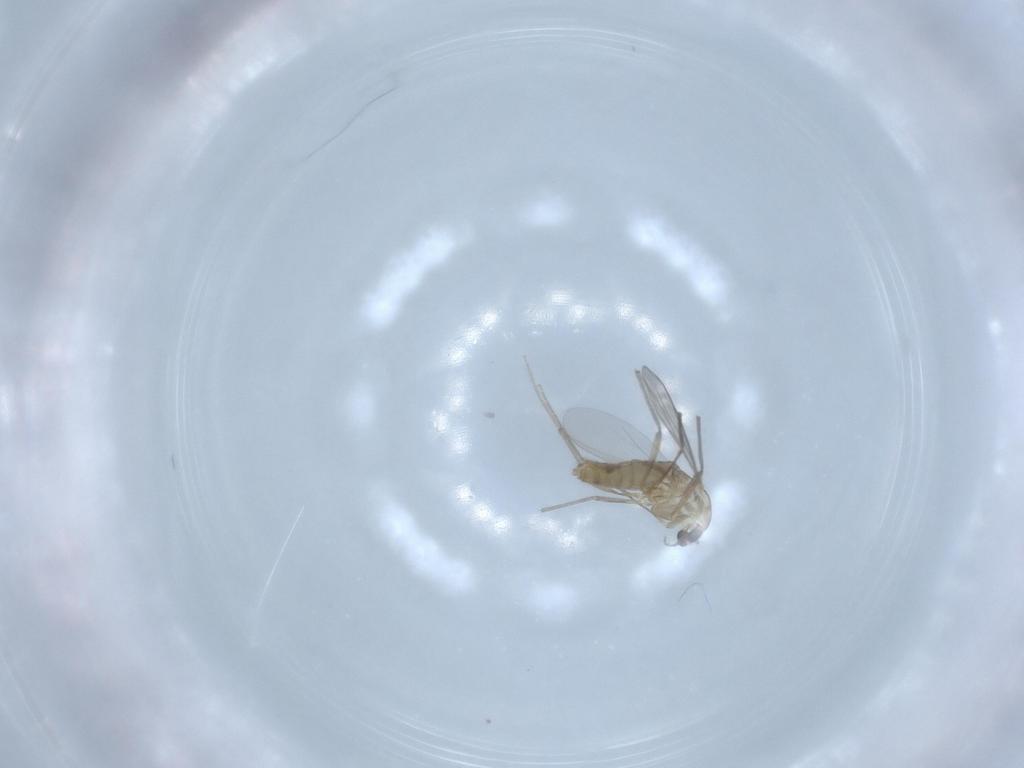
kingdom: Animalia
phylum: Arthropoda
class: Insecta
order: Diptera
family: Chironomidae
